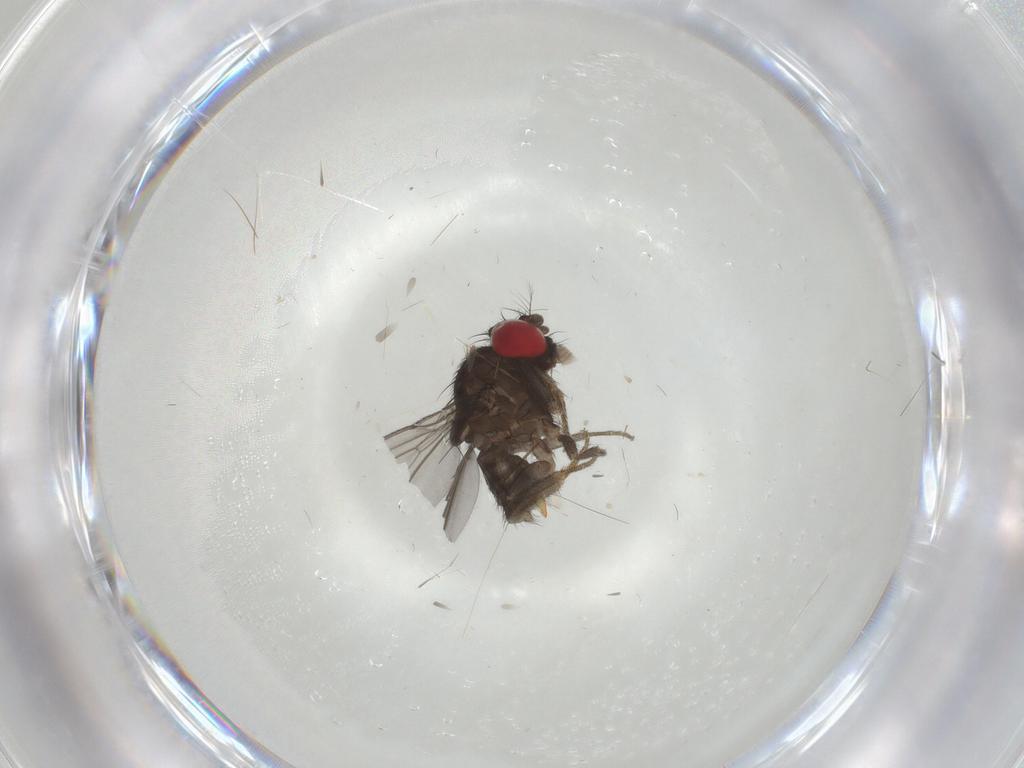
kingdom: Animalia
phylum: Arthropoda
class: Insecta
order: Diptera
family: Drosophilidae
